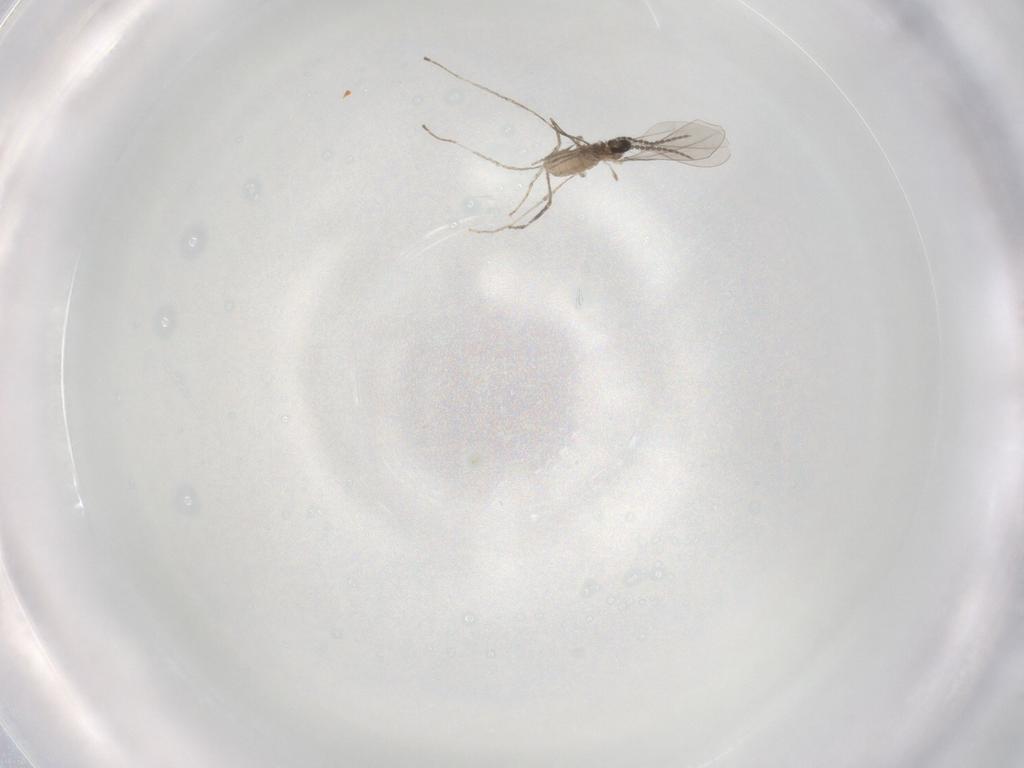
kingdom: Animalia
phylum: Arthropoda
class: Insecta
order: Diptera
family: Cecidomyiidae
